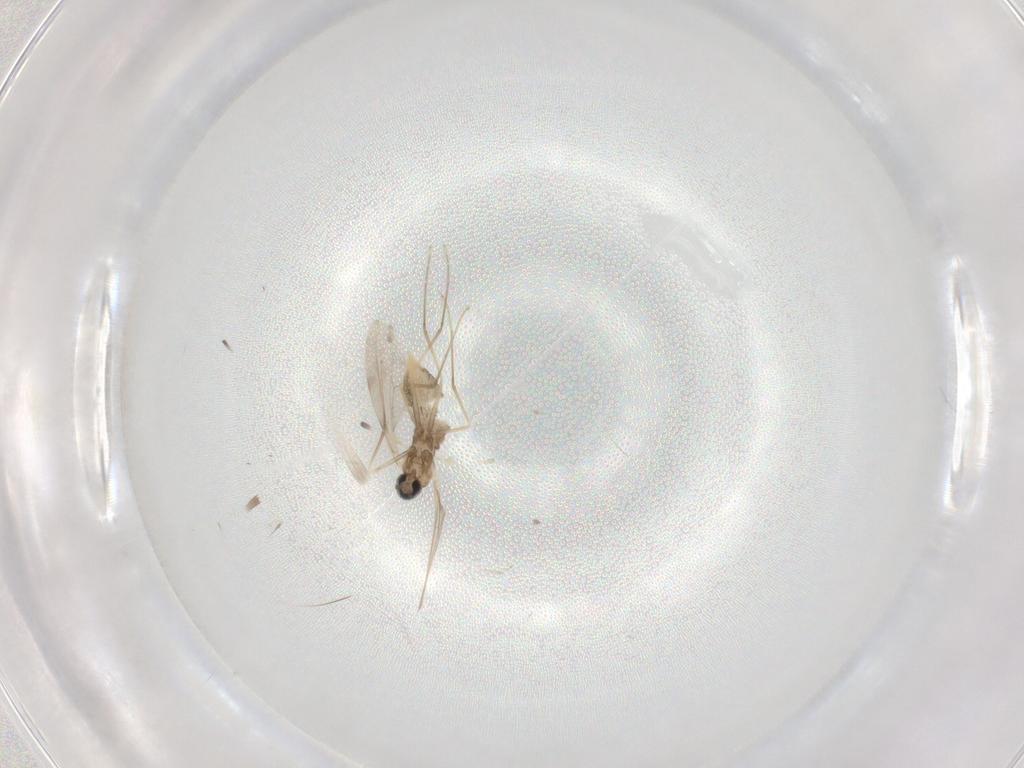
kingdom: Animalia
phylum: Arthropoda
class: Insecta
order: Diptera
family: Cecidomyiidae
